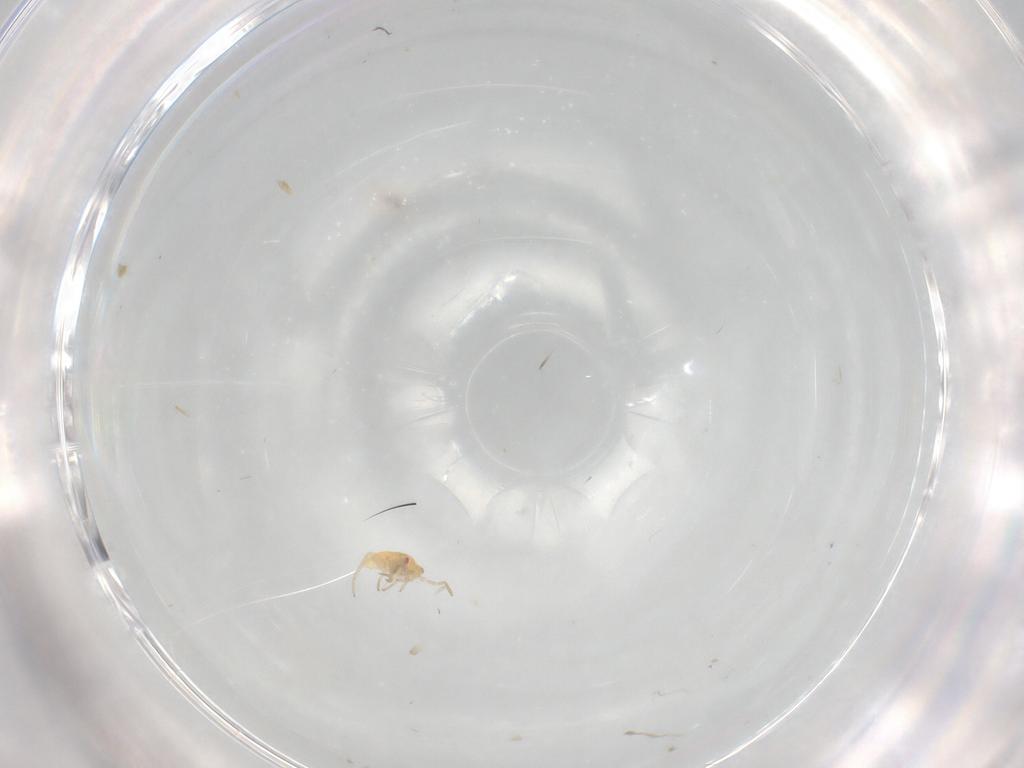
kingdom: Animalia
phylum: Arthropoda
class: Insecta
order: Hemiptera
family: Miridae
